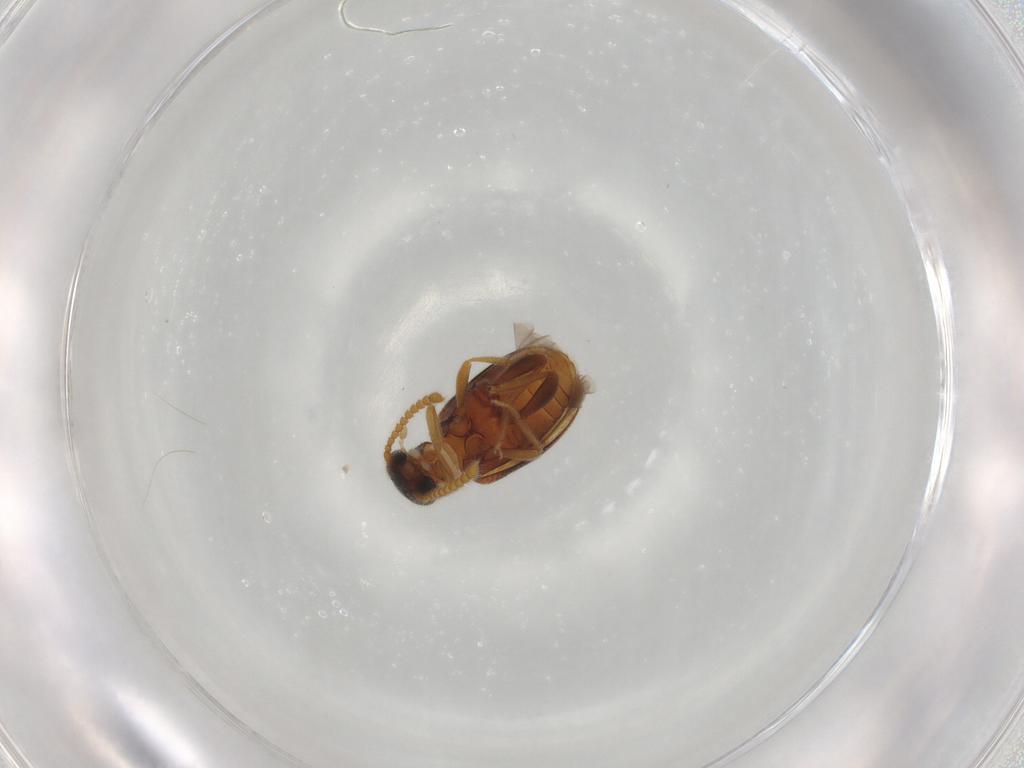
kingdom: Animalia
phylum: Arthropoda
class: Insecta
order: Coleoptera
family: Aderidae
